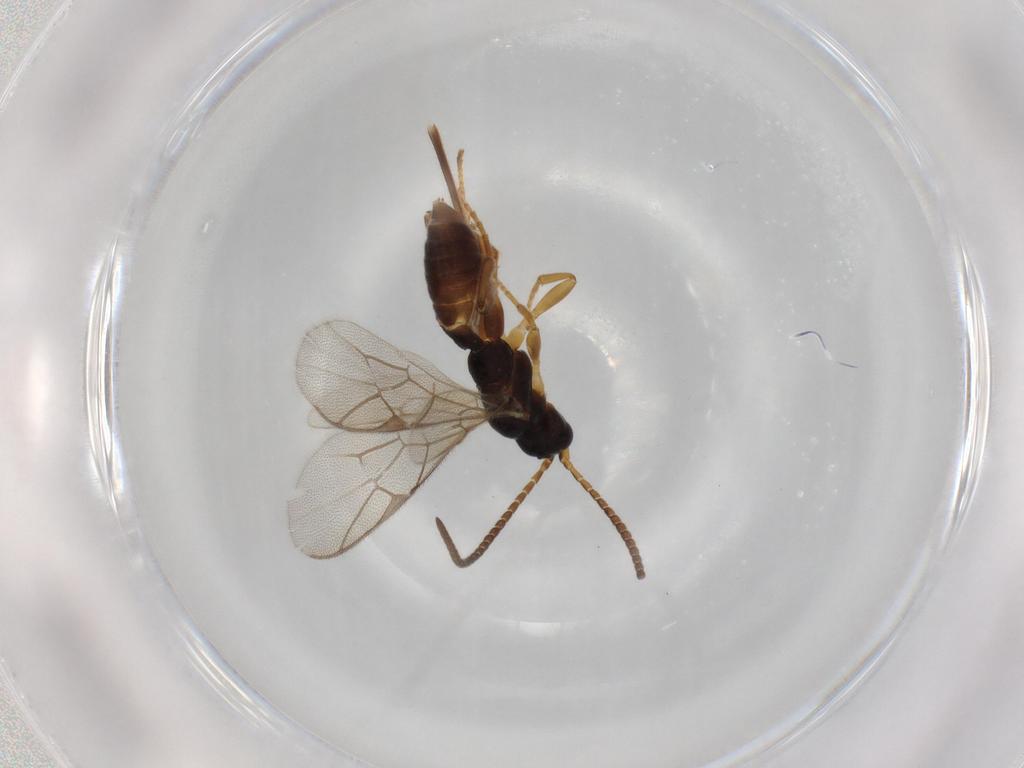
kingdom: Animalia
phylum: Arthropoda
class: Insecta
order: Hymenoptera
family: Ichneumonidae
